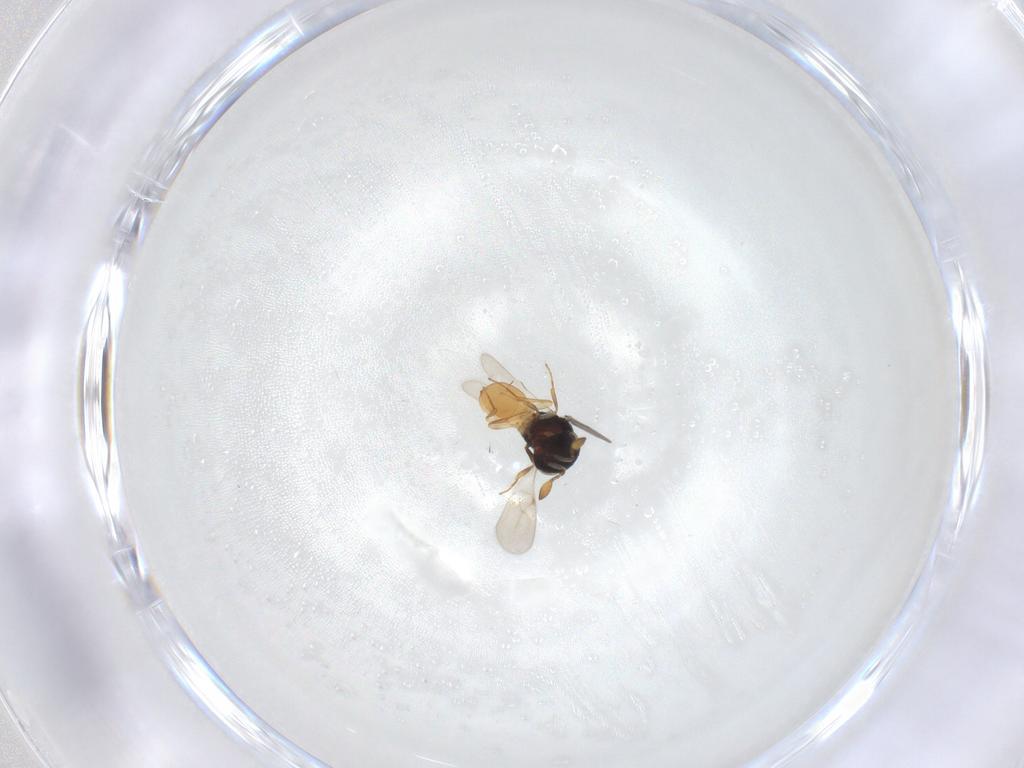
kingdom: Animalia
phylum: Arthropoda
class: Insecta
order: Hymenoptera
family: Scelionidae
